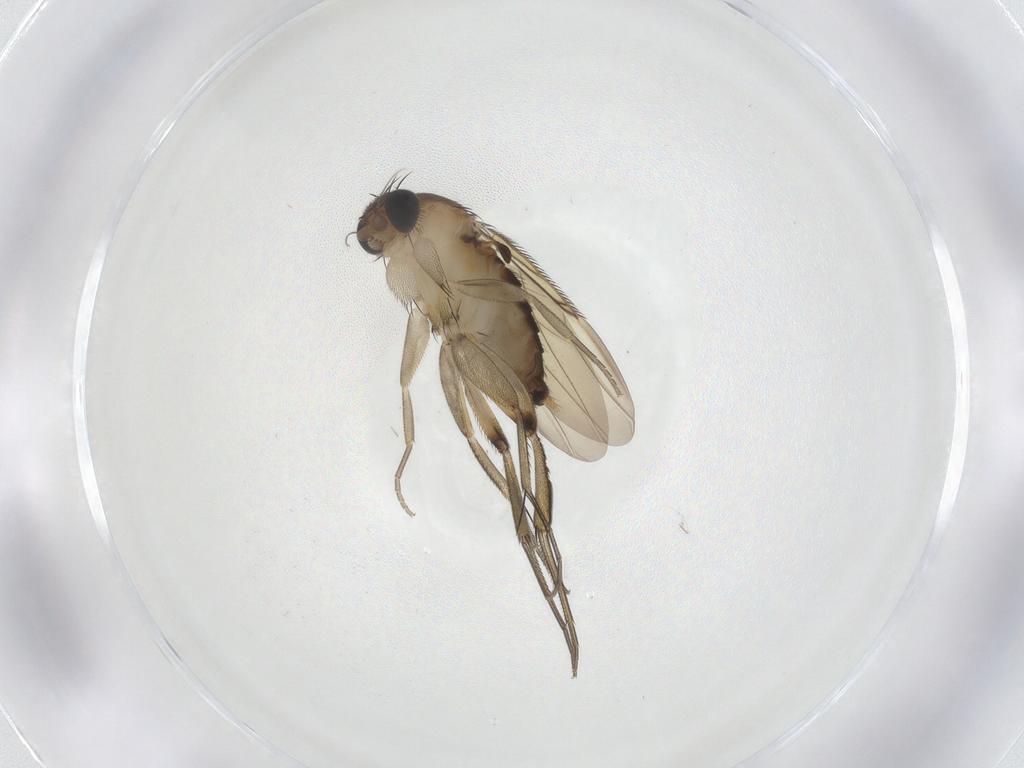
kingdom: Animalia
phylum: Arthropoda
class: Insecta
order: Diptera
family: Phoridae
